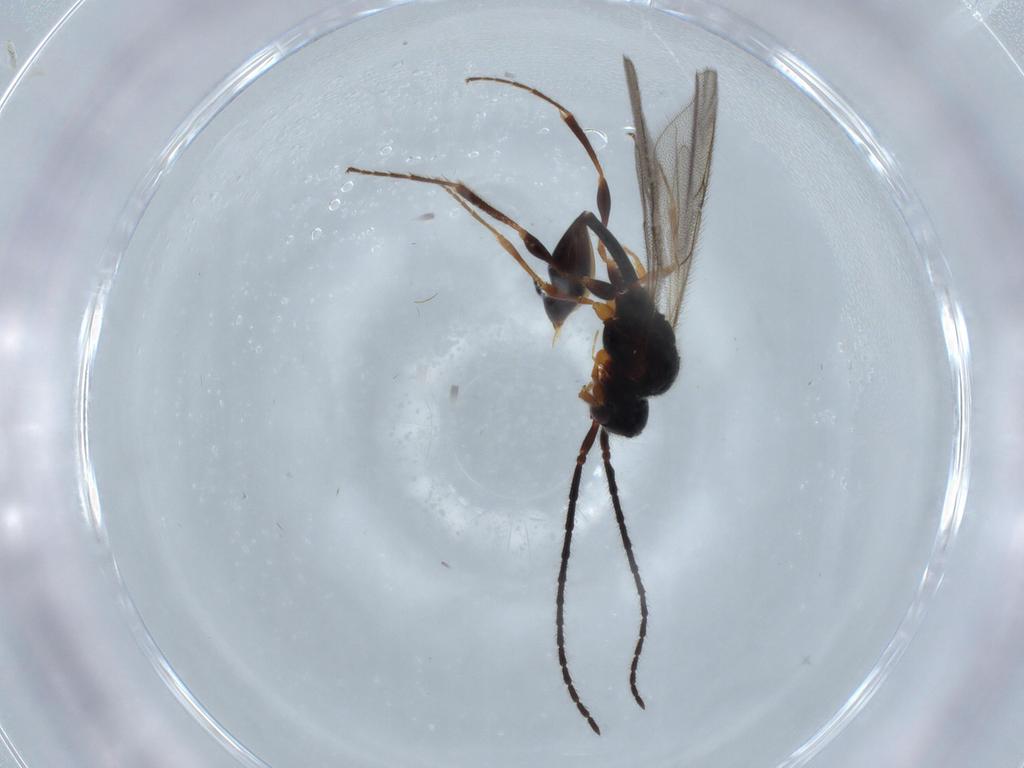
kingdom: Animalia
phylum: Arthropoda
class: Insecta
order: Hymenoptera
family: Diapriidae
